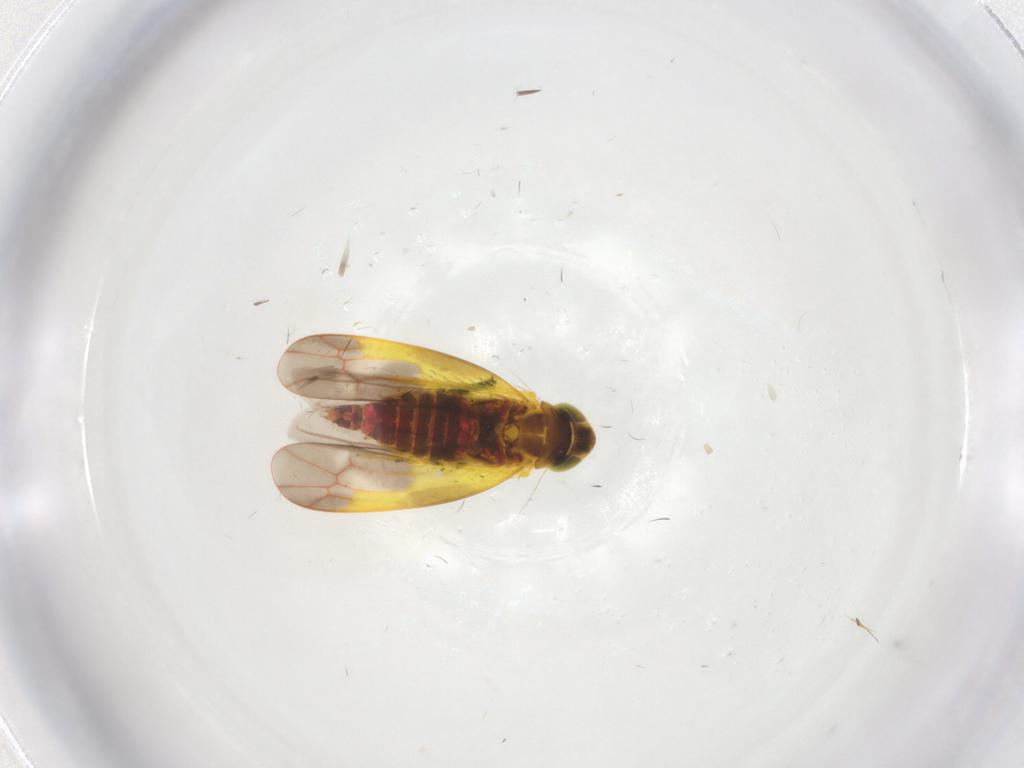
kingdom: Animalia
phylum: Arthropoda
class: Insecta
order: Hemiptera
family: Cicadellidae
